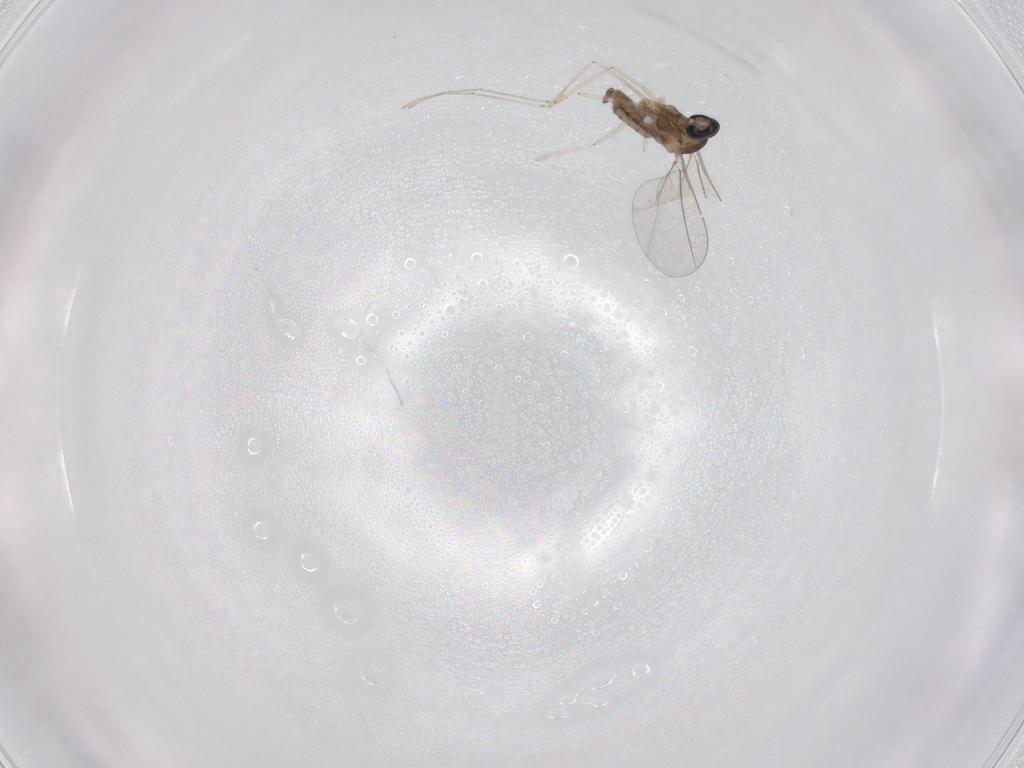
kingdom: Animalia
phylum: Arthropoda
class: Insecta
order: Diptera
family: Cecidomyiidae
